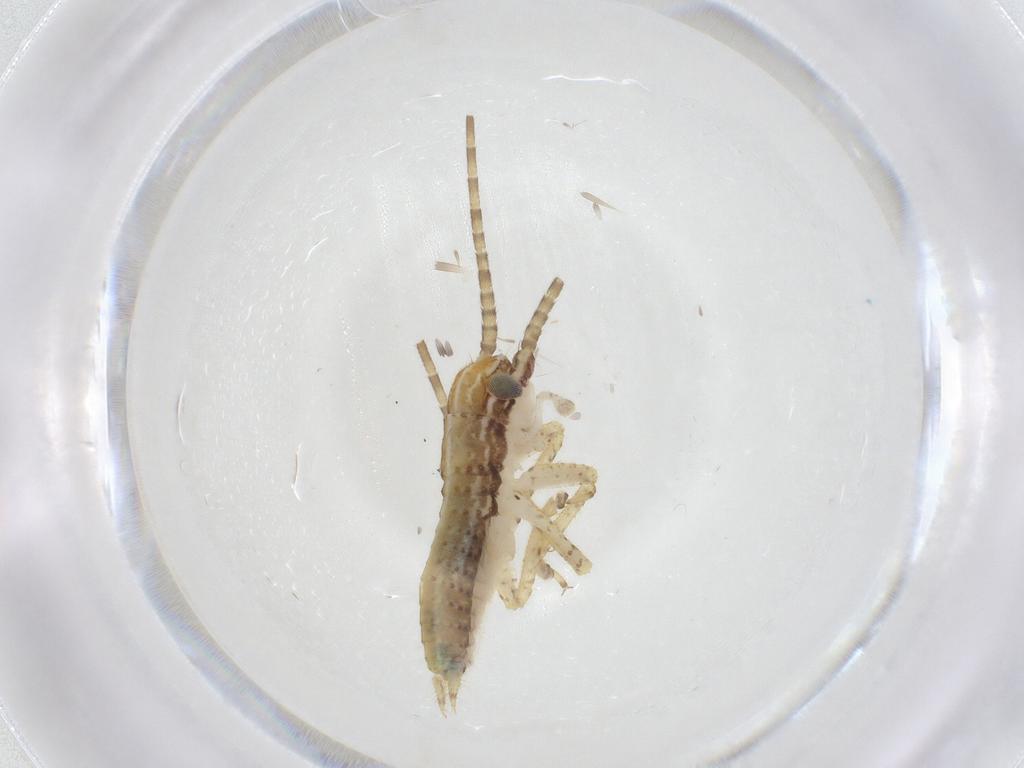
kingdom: Animalia
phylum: Arthropoda
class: Insecta
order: Orthoptera
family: Gryllidae
